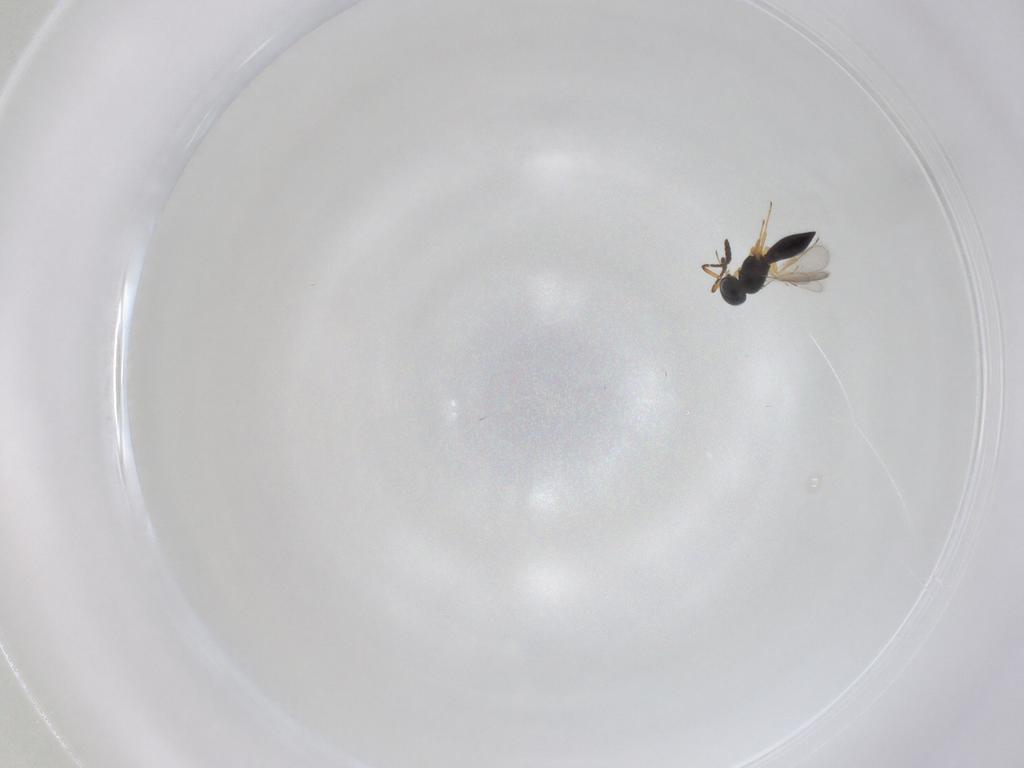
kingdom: Animalia
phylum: Arthropoda
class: Insecta
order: Hymenoptera
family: Scelionidae
